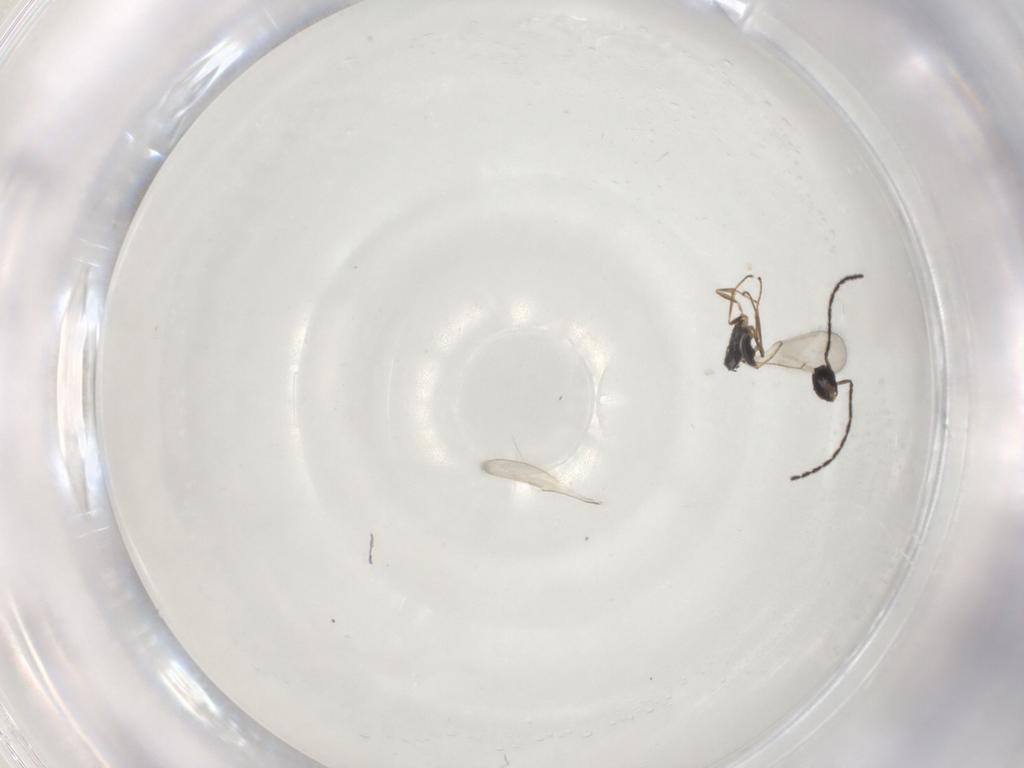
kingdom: Animalia
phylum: Arthropoda
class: Insecta
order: Hymenoptera
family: Scelionidae
